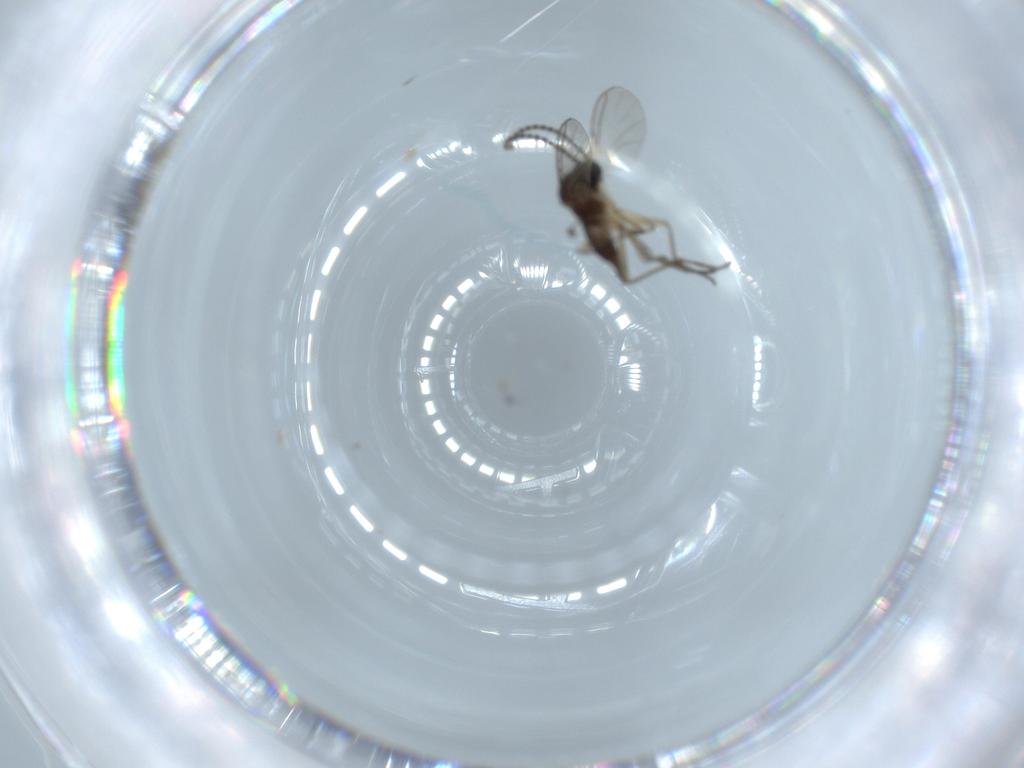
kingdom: Animalia
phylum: Arthropoda
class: Insecta
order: Diptera
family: Sciaridae
